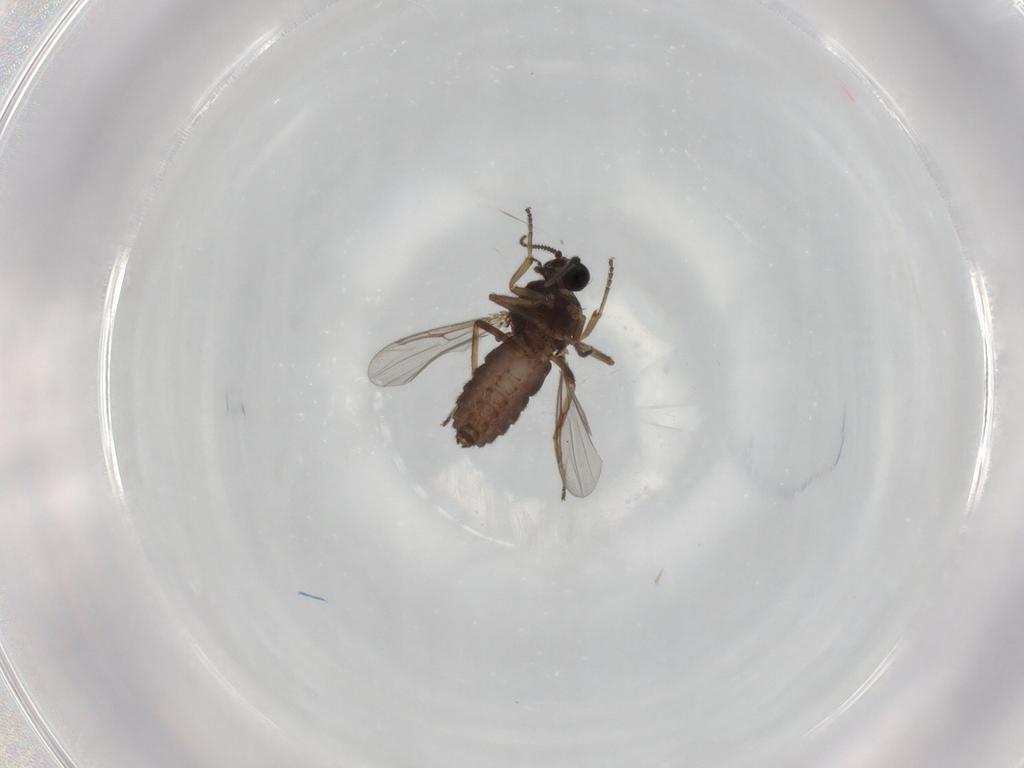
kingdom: Animalia
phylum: Arthropoda
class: Insecta
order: Diptera
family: Ceratopogonidae
